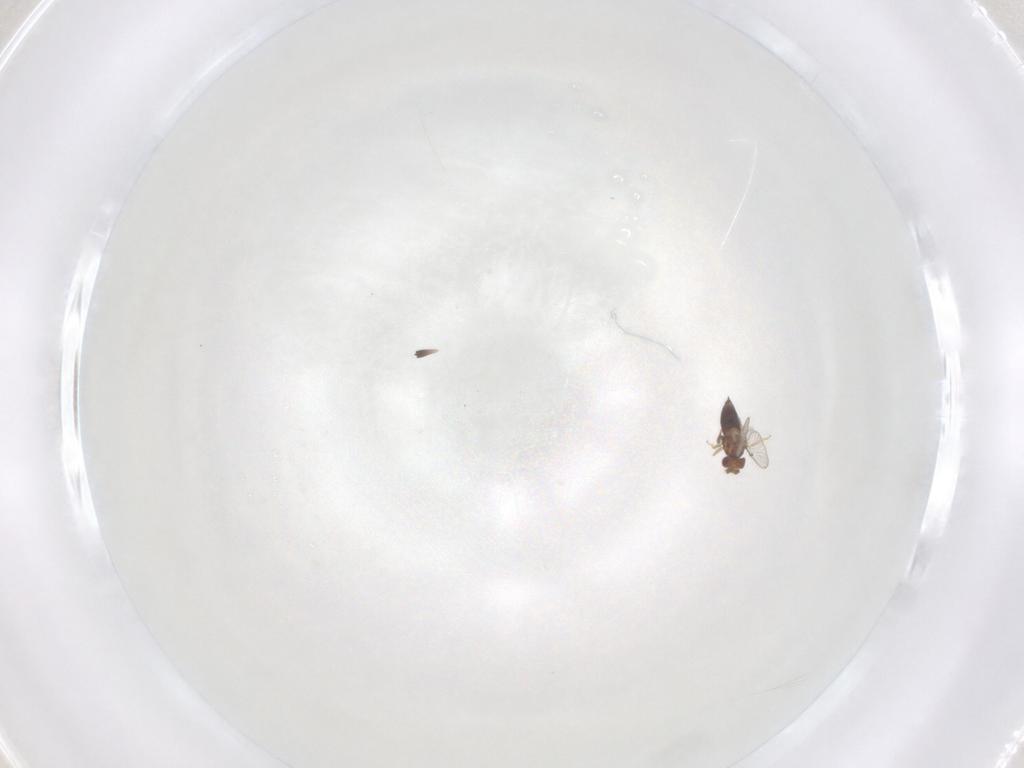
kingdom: Animalia
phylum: Arthropoda
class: Insecta
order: Hymenoptera
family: Trichogrammatidae
